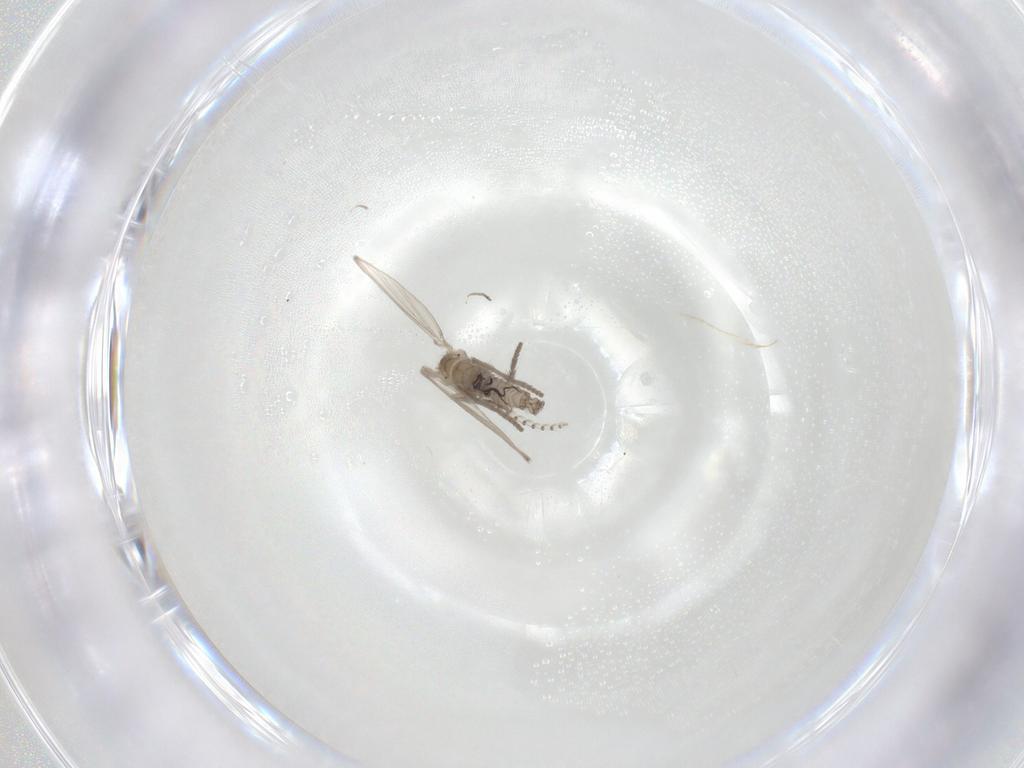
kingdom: Animalia
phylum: Arthropoda
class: Insecta
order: Diptera
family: Psychodidae
